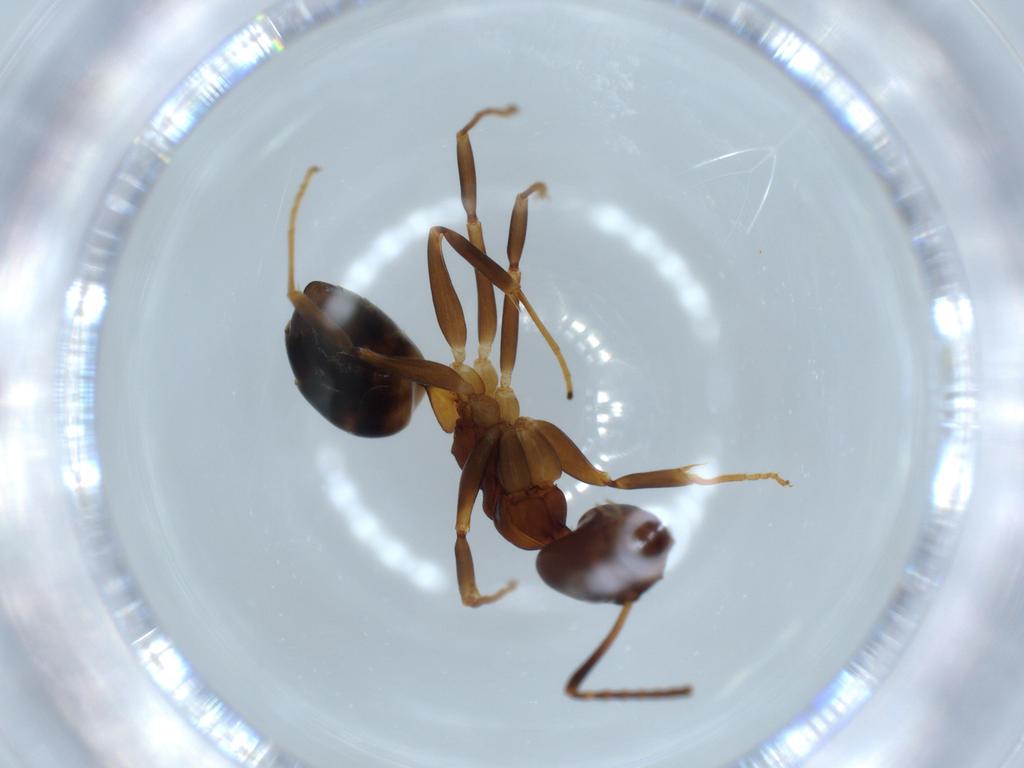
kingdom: Animalia
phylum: Arthropoda
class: Insecta
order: Hymenoptera
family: Formicidae
